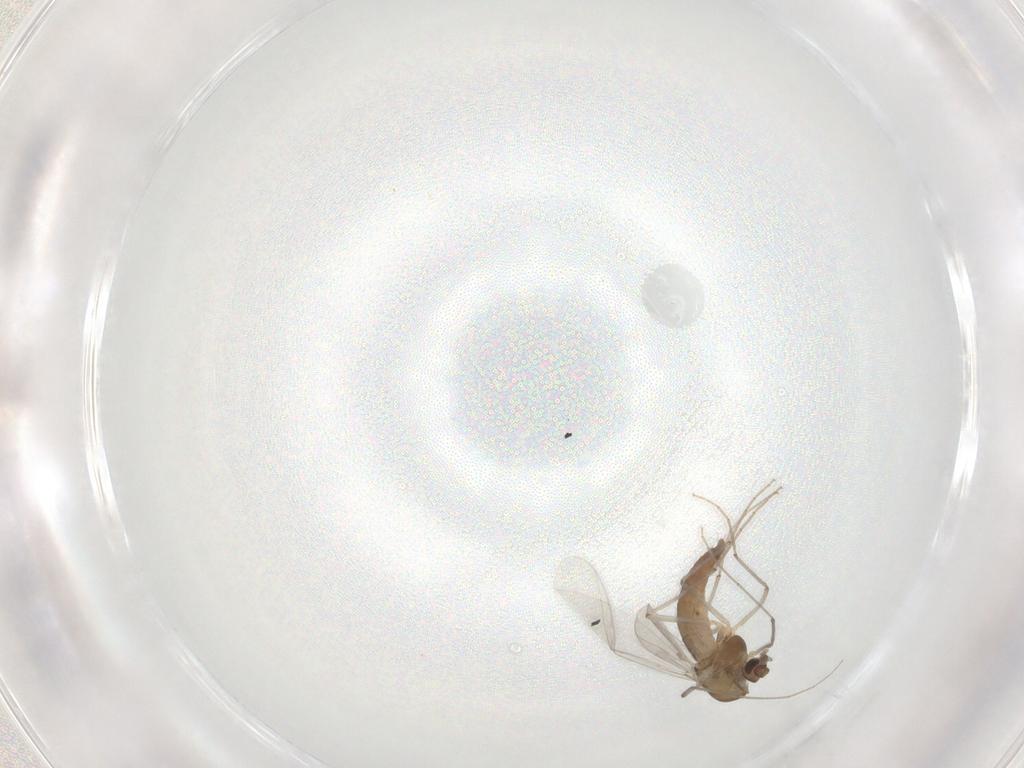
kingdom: Animalia
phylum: Arthropoda
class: Insecta
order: Diptera
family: Chironomidae
